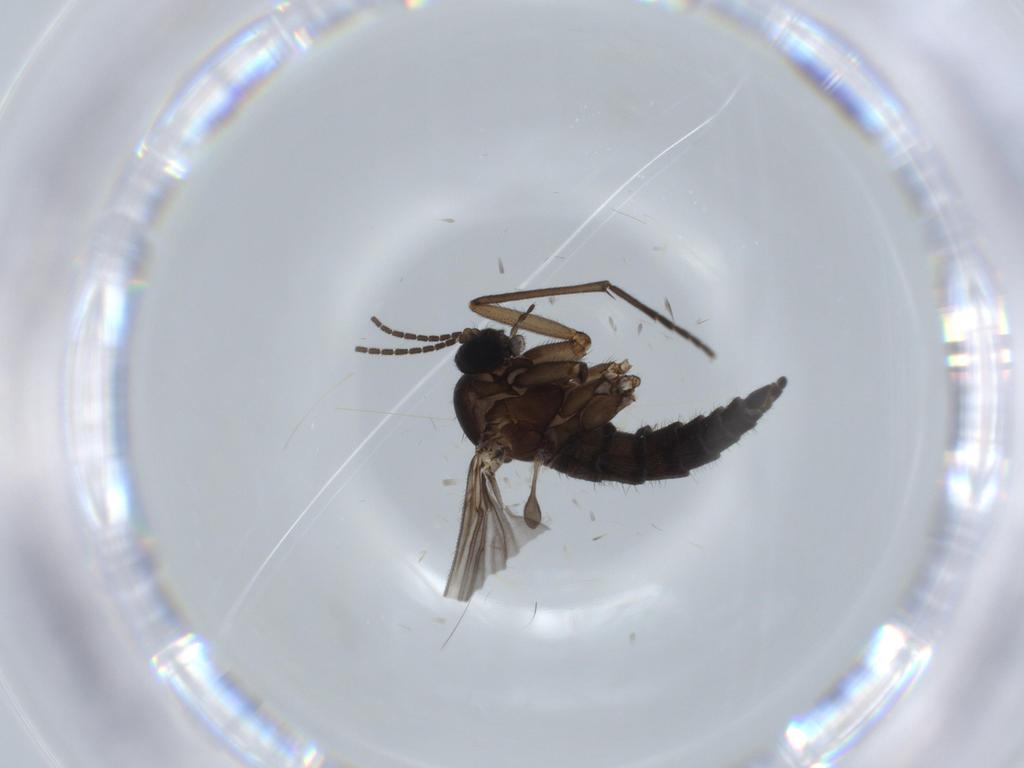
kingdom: Animalia
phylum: Arthropoda
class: Insecta
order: Diptera
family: Sciaridae
